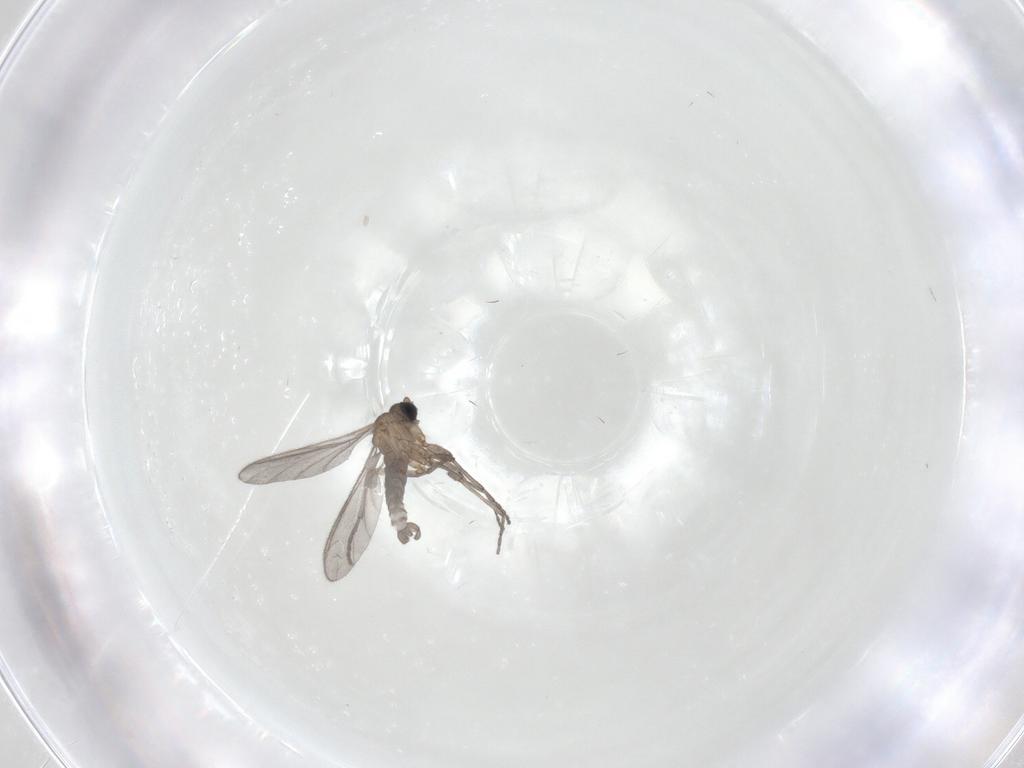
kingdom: Animalia
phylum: Arthropoda
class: Insecta
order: Diptera
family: Sciaridae
